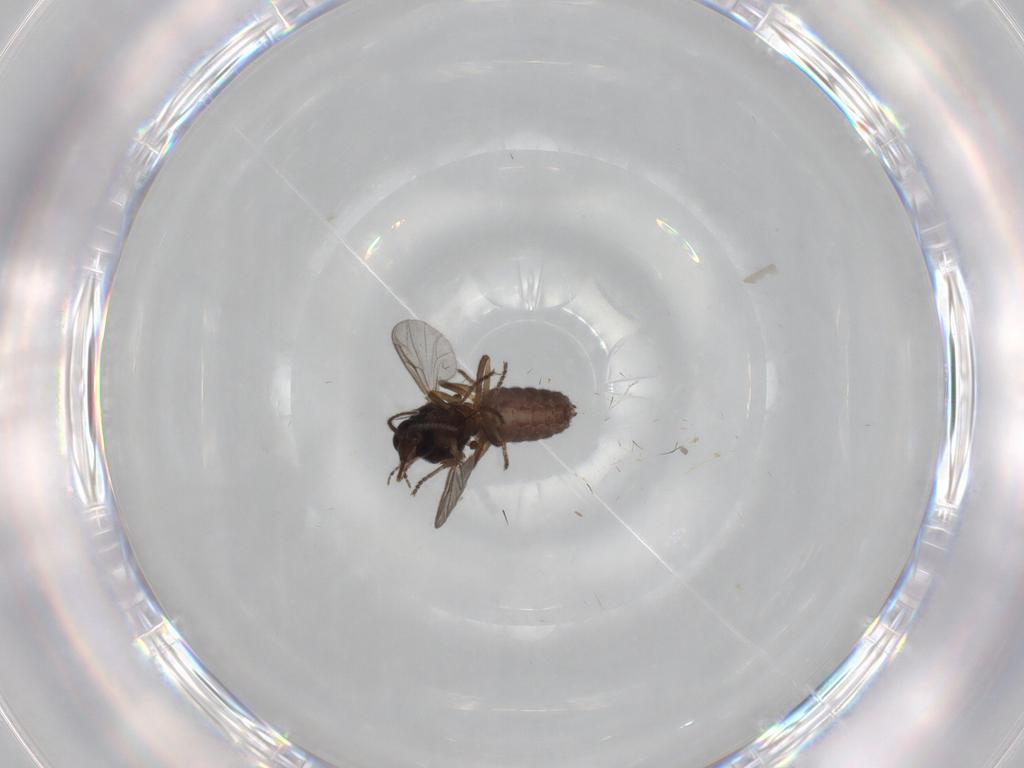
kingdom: Animalia
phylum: Arthropoda
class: Insecta
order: Diptera
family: Ceratopogonidae
